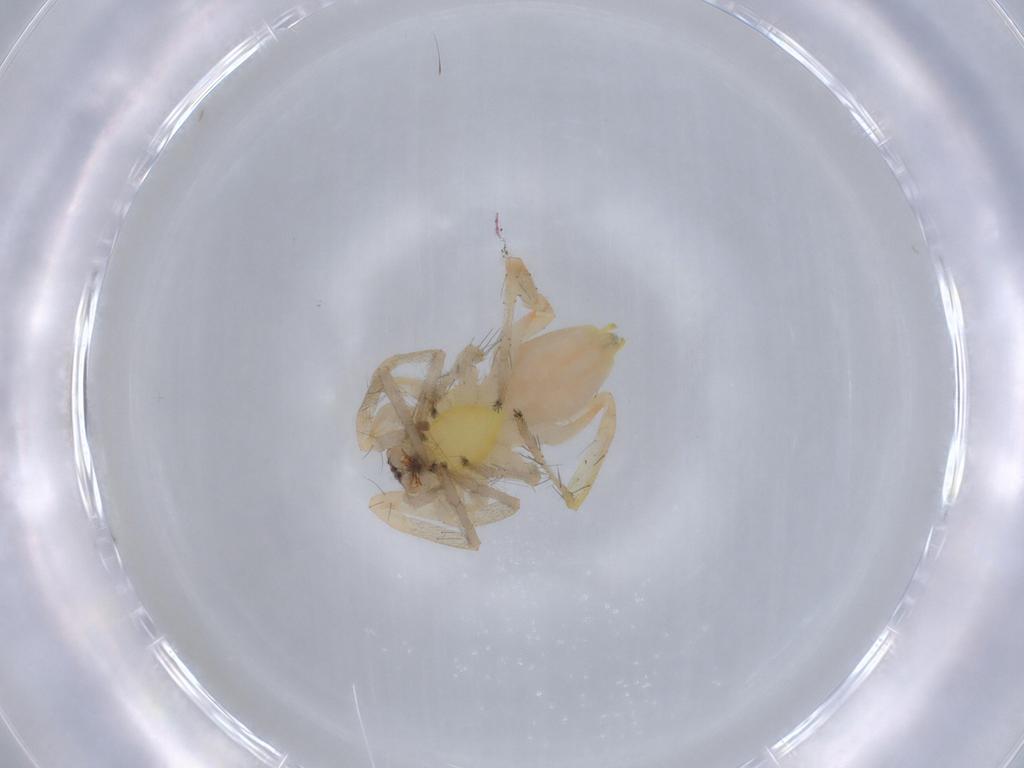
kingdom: Animalia
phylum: Arthropoda
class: Arachnida
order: Araneae
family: Anyphaenidae
